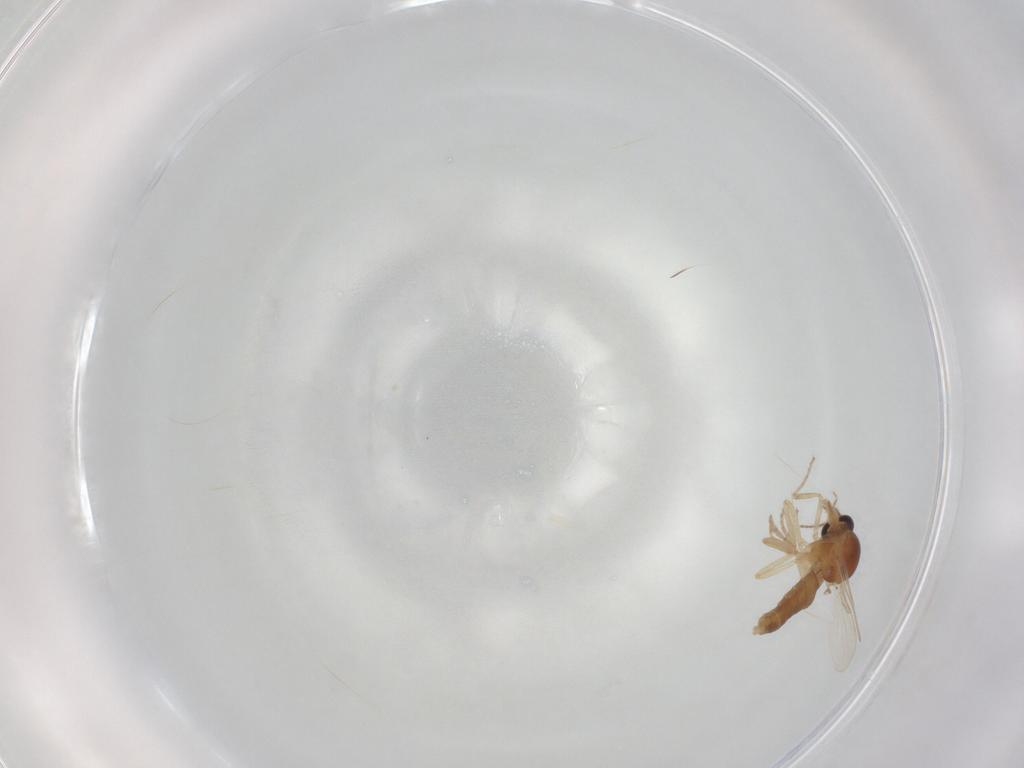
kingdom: Animalia
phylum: Arthropoda
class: Insecta
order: Diptera
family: Ceratopogonidae
